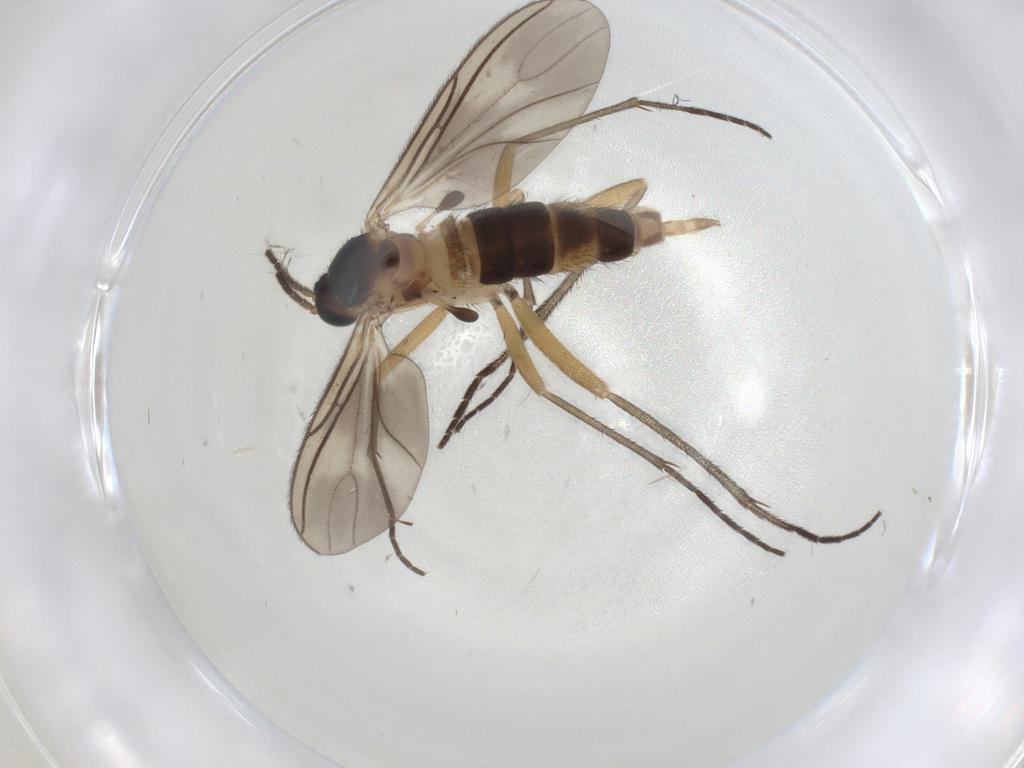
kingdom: Animalia
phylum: Arthropoda
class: Insecta
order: Diptera
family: Sciaridae
